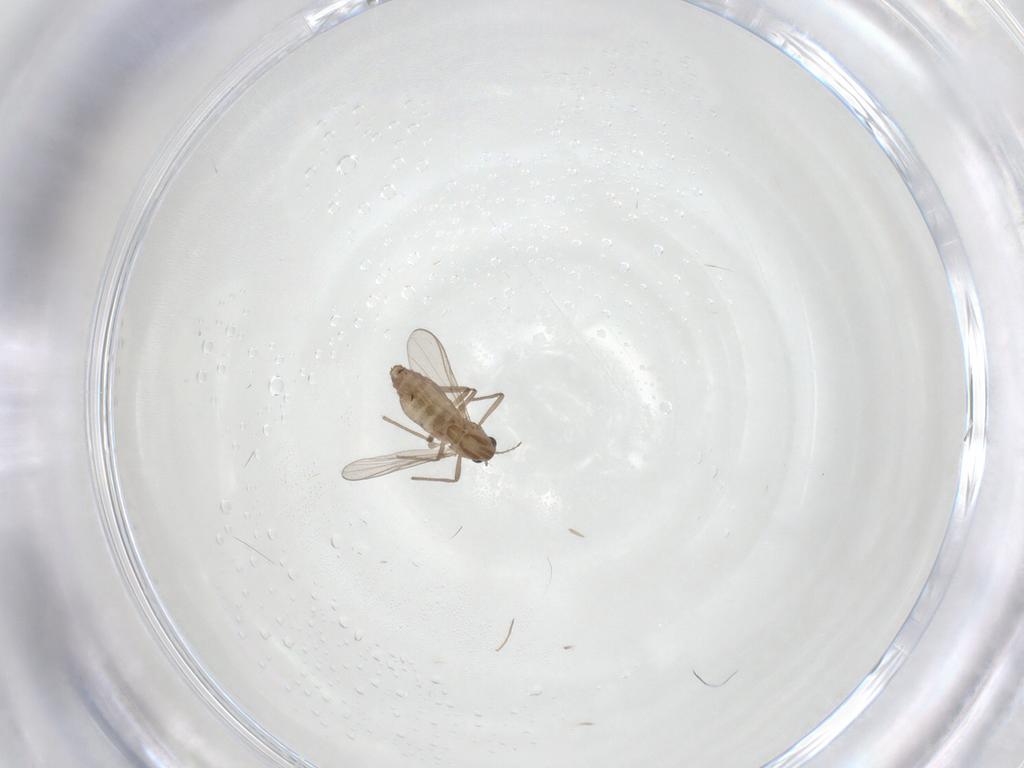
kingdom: Animalia
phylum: Arthropoda
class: Insecta
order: Diptera
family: Chironomidae
